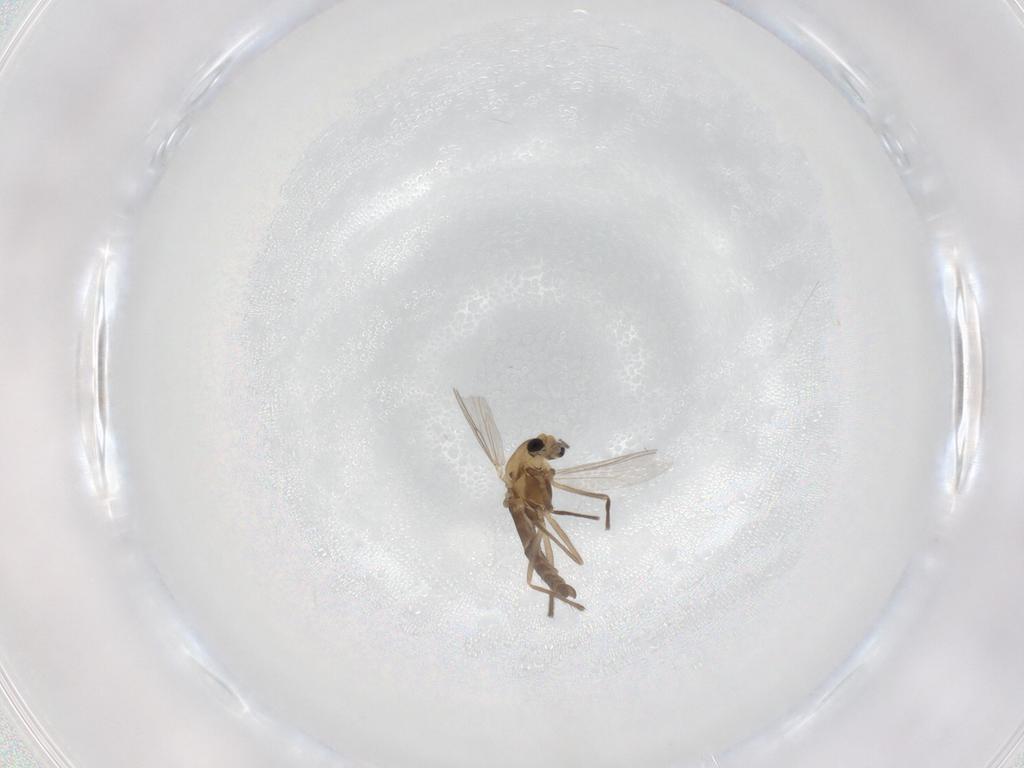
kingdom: Animalia
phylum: Arthropoda
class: Insecta
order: Diptera
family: Chironomidae
